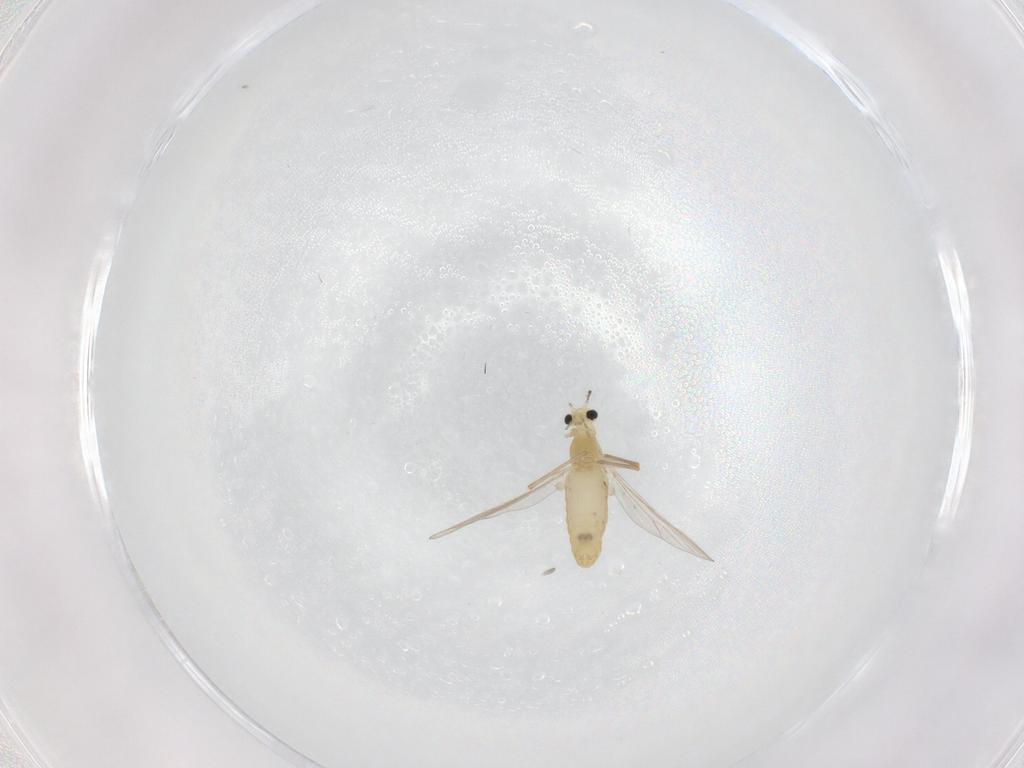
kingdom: Animalia
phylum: Arthropoda
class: Insecta
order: Diptera
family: Chironomidae
